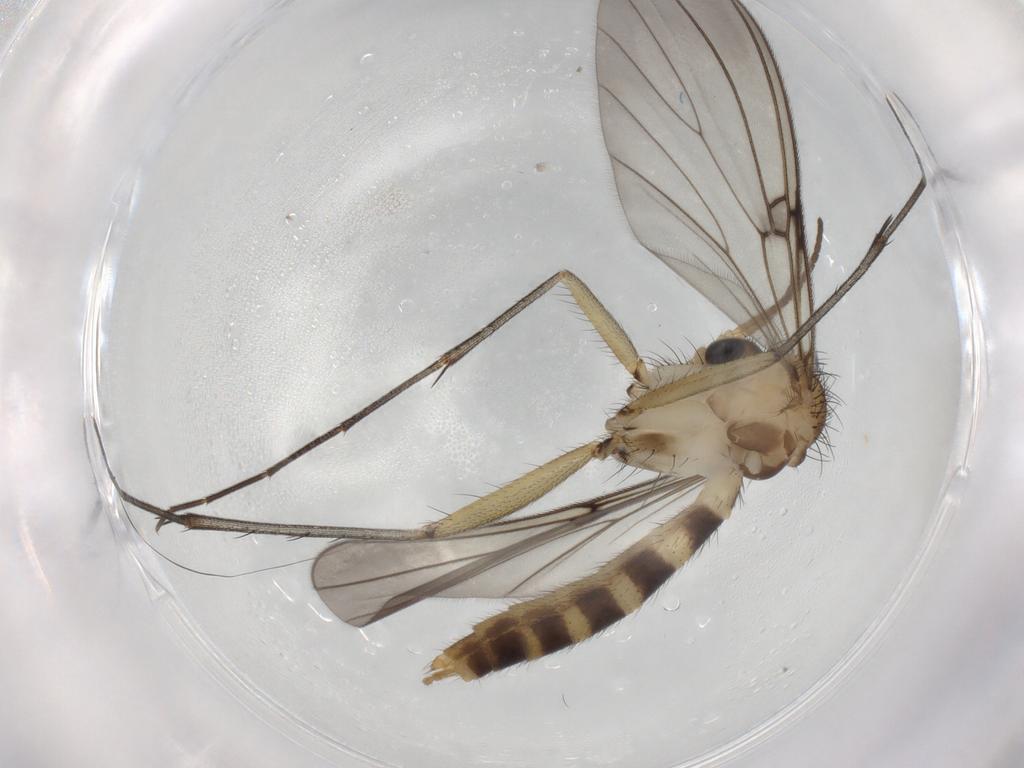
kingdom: Animalia
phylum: Arthropoda
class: Insecta
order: Diptera
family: Mycetophilidae
